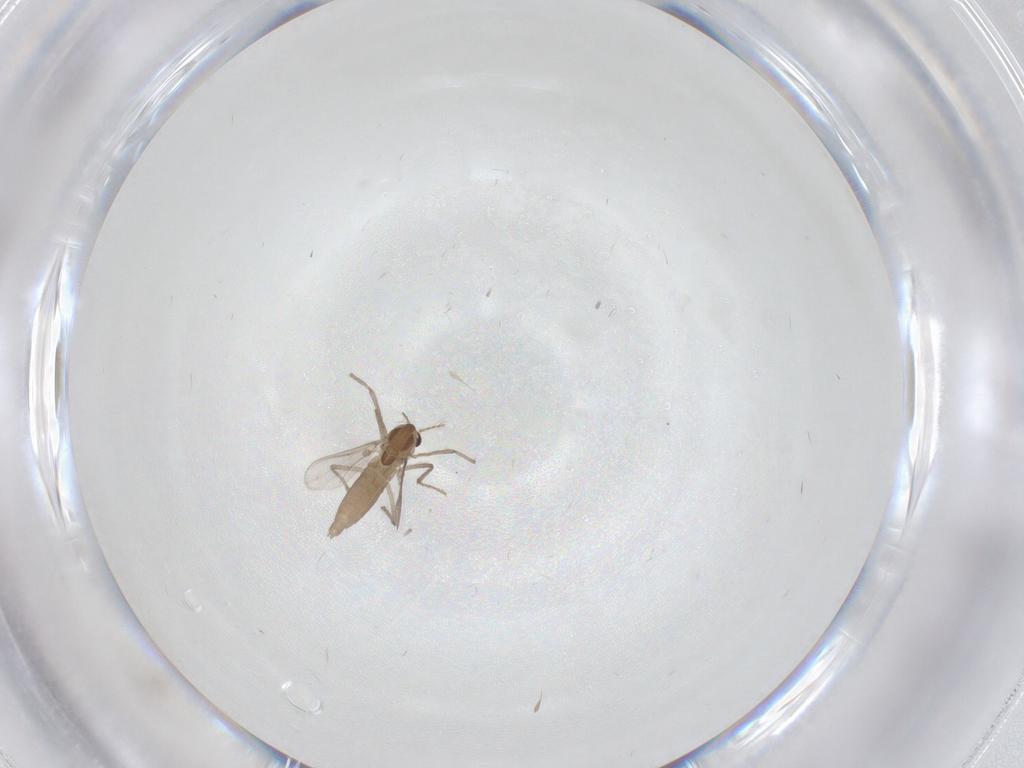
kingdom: Animalia
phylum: Arthropoda
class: Insecta
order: Diptera
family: Chironomidae
